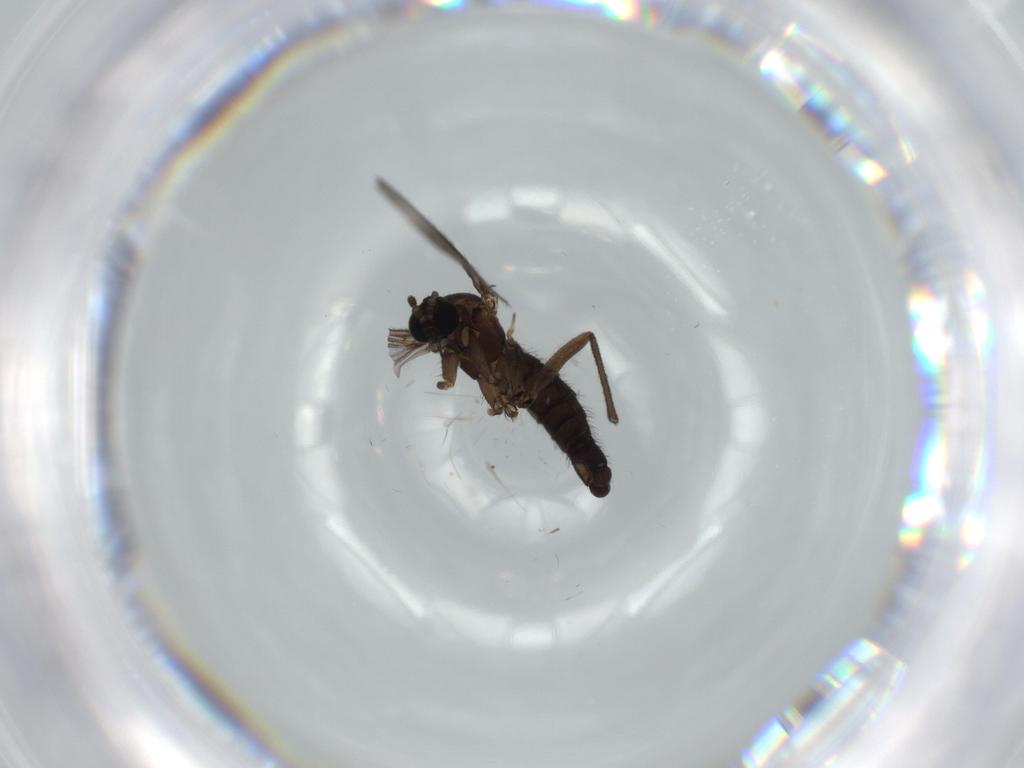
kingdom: Animalia
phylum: Arthropoda
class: Insecta
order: Diptera
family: Sciaridae
